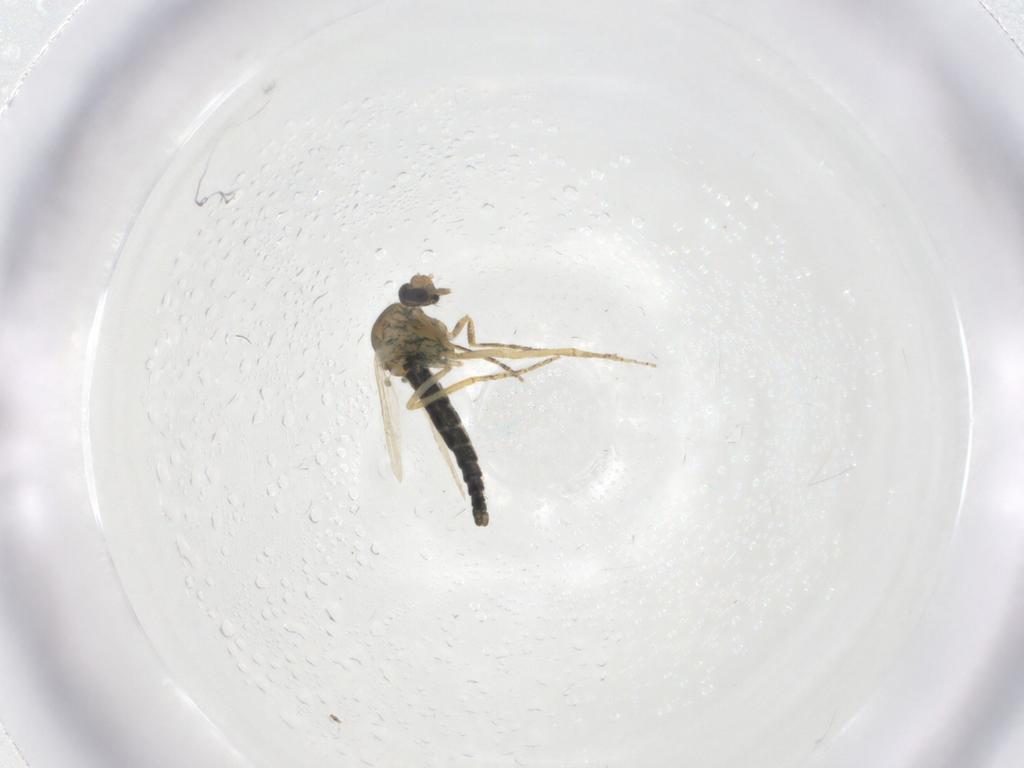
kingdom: Animalia
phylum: Arthropoda
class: Insecta
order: Diptera
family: Ceratopogonidae
